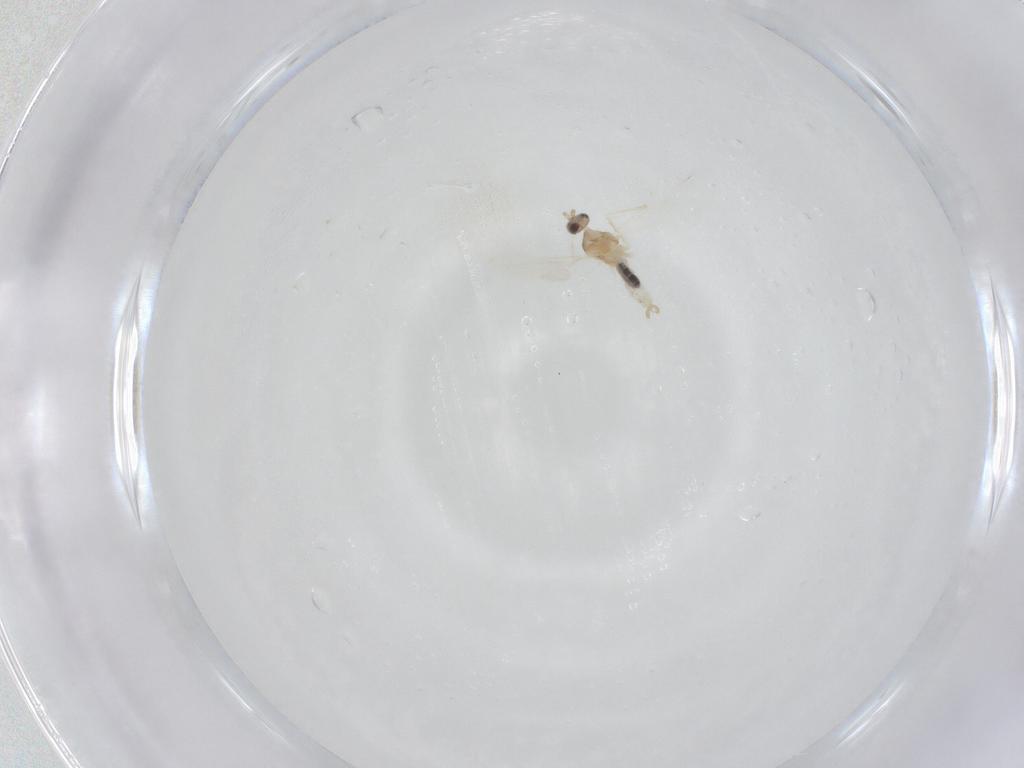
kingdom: Animalia
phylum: Arthropoda
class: Insecta
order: Diptera
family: Cecidomyiidae
